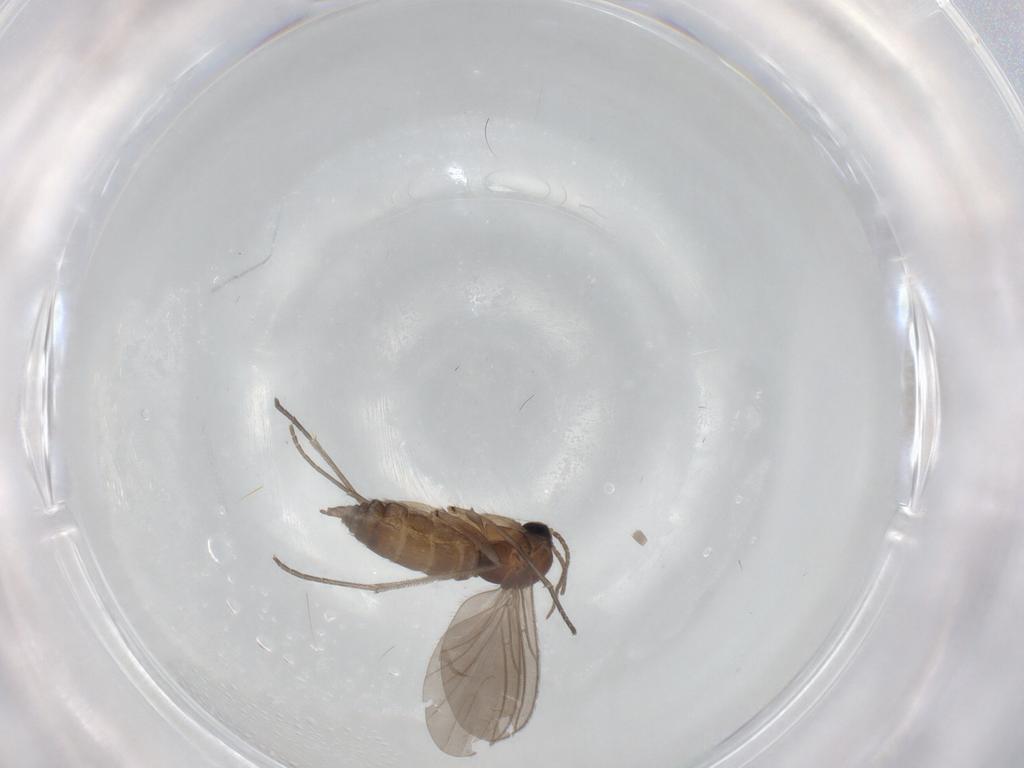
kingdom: Animalia
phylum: Arthropoda
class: Insecta
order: Diptera
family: Sciaridae
